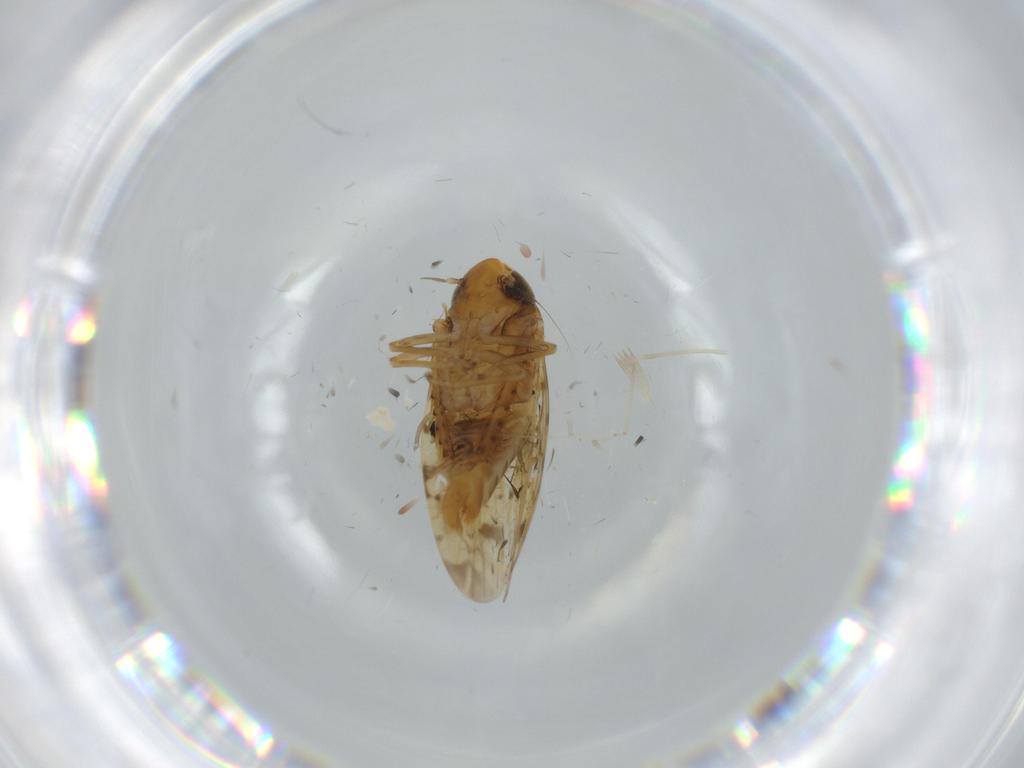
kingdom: Animalia
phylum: Arthropoda
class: Insecta
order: Hemiptera
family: Cicadellidae
